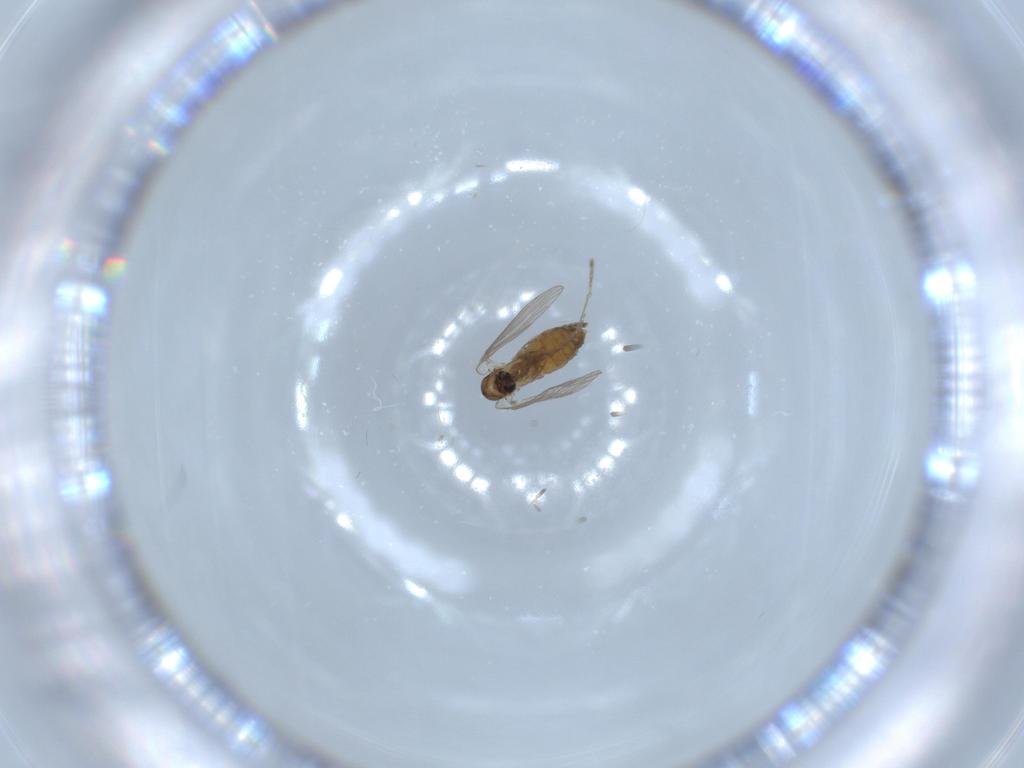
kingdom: Animalia
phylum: Arthropoda
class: Insecta
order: Diptera
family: Psychodidae
